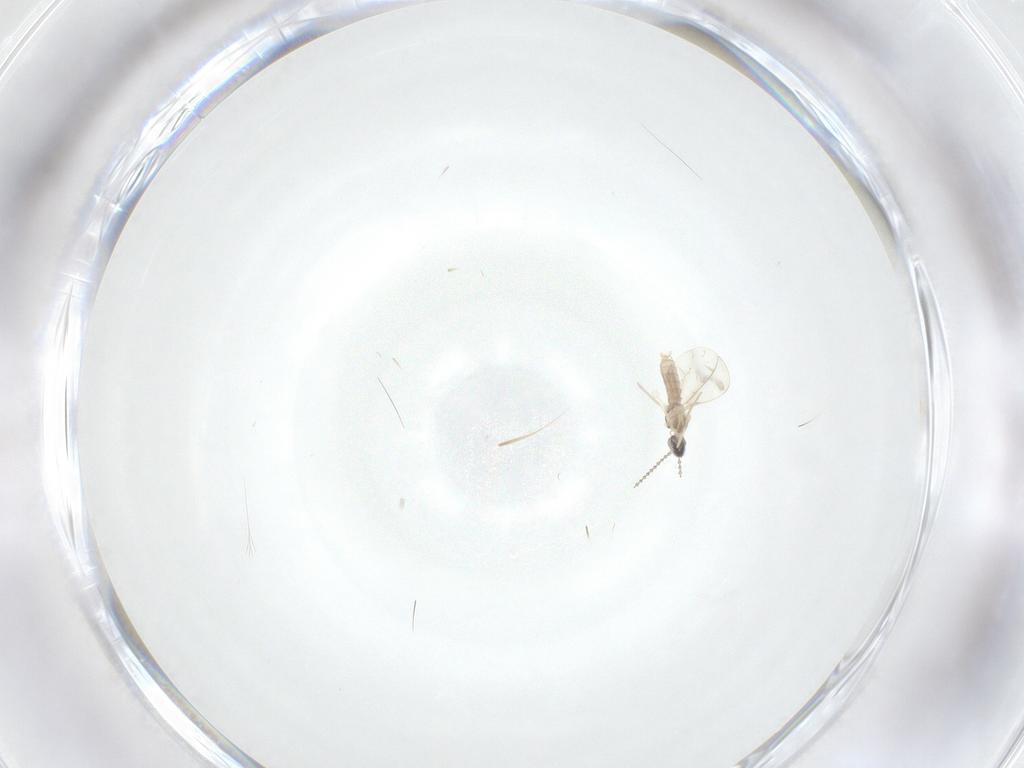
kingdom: Animalia
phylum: Arthropoda
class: Insecta
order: Diptera
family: Cecidomyiidae
